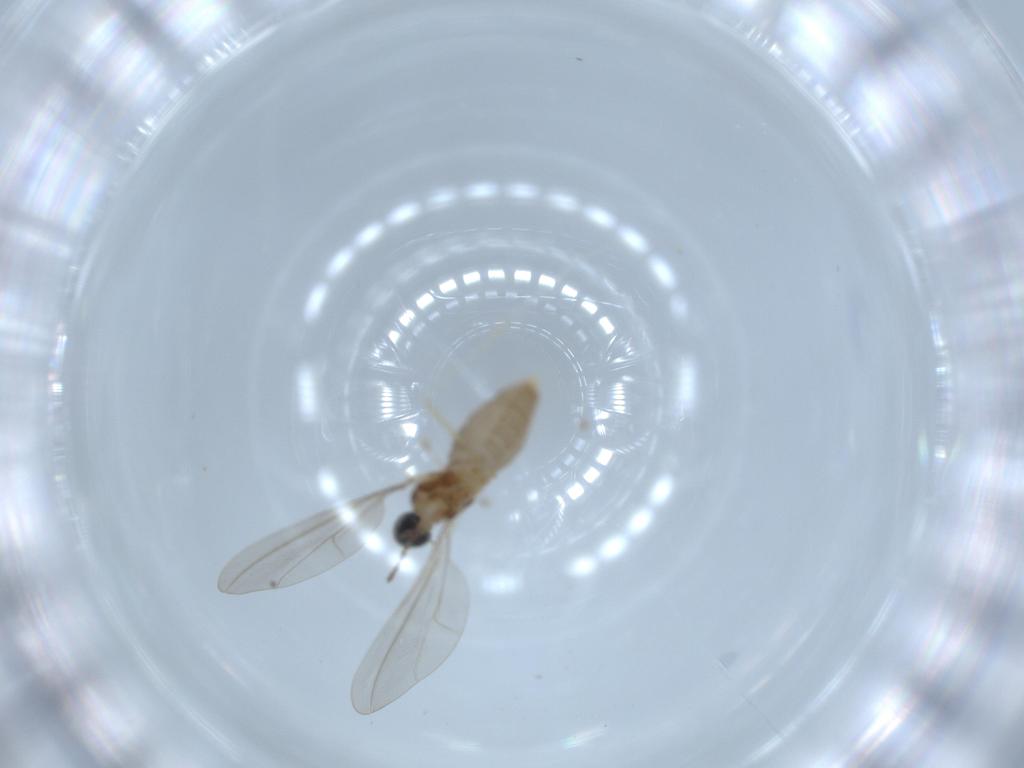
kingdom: Animalia
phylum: Arthropoda
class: Insecta
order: Diptera
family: Cecidomyiidae
